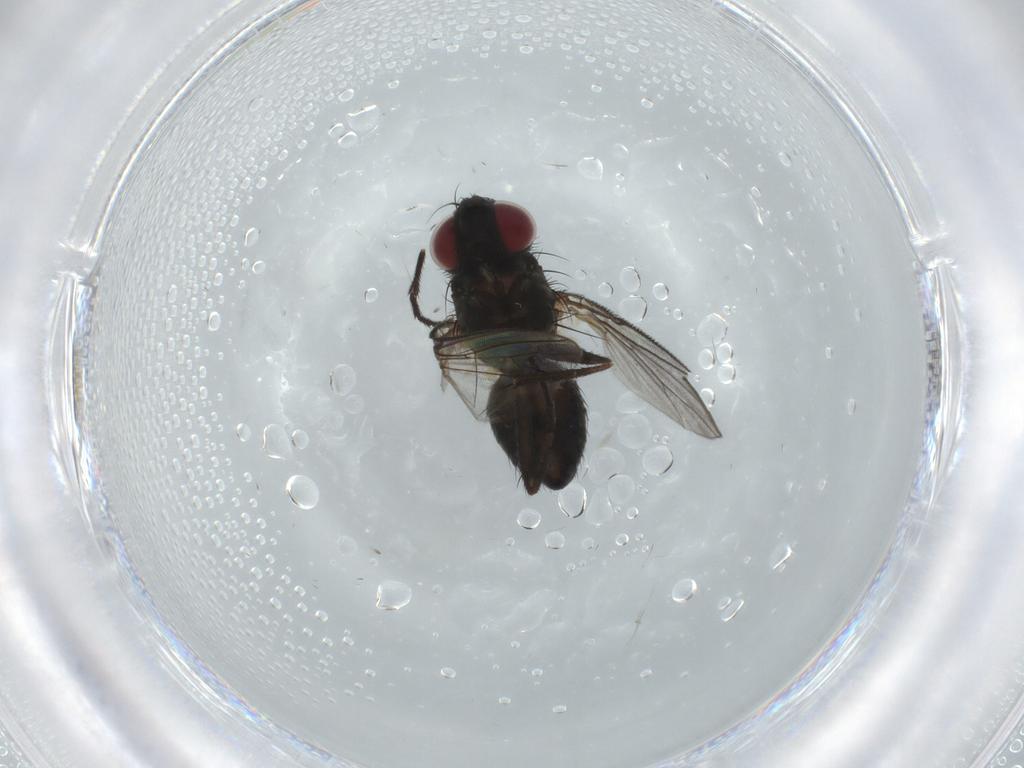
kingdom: Animalia
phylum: Arthropoda
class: Insecta
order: Diptera
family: Muscidae
